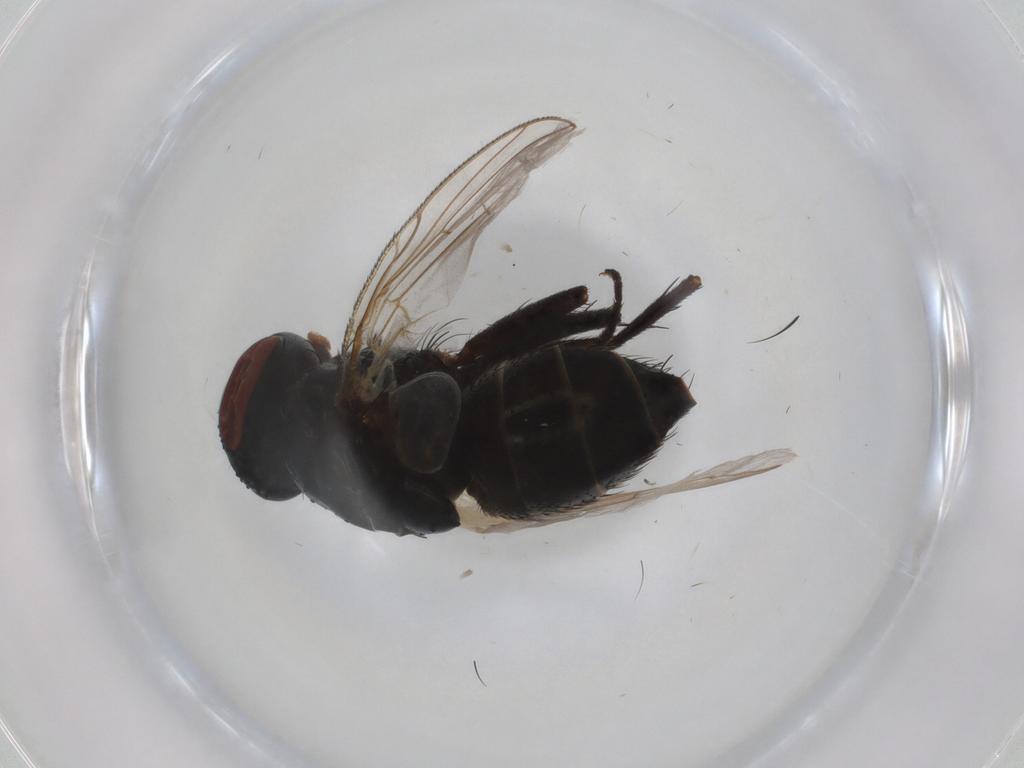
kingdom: Animalia
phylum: Arthropoda
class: Insecta
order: Diptera
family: Sarcophagidae
